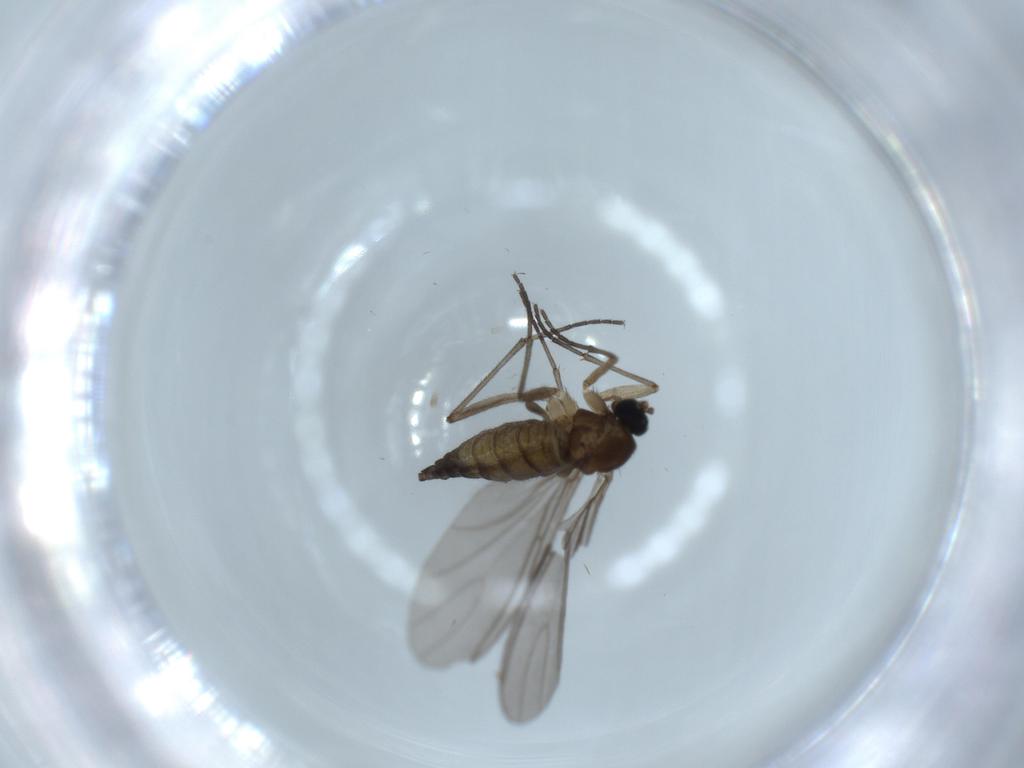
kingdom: Animalia
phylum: Arthropoda
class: Insecta
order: Diptera
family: Sciaridae
